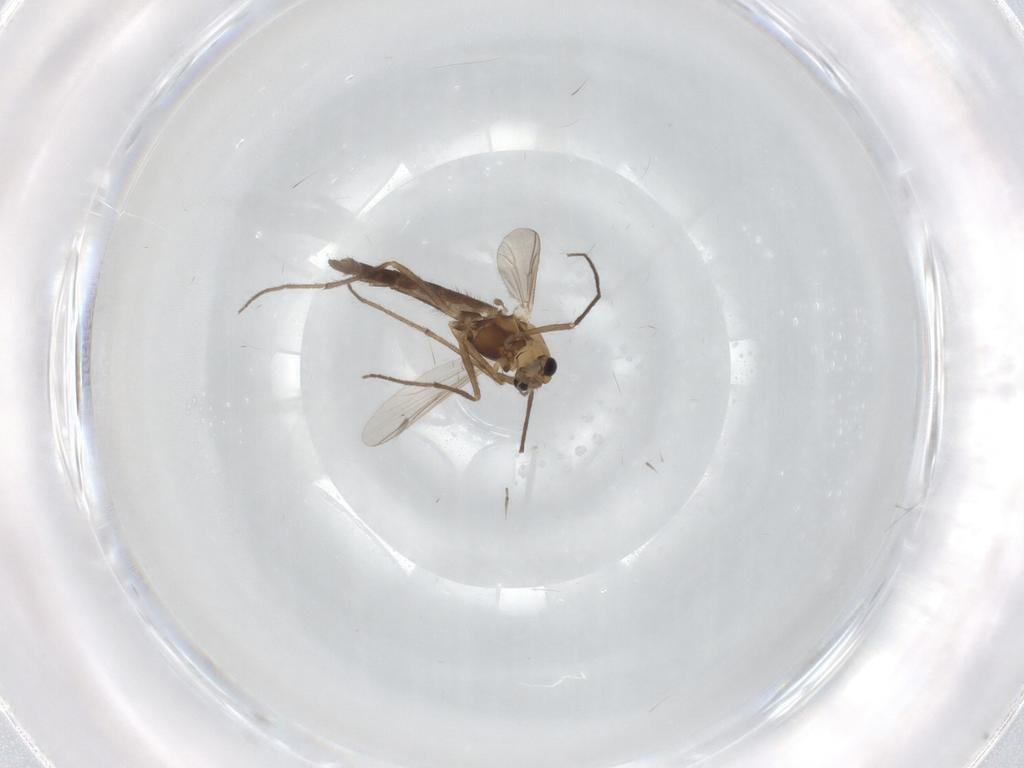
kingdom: Animalia
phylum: Arthropoda
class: Insecta
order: Diptera
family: Chironomidae
